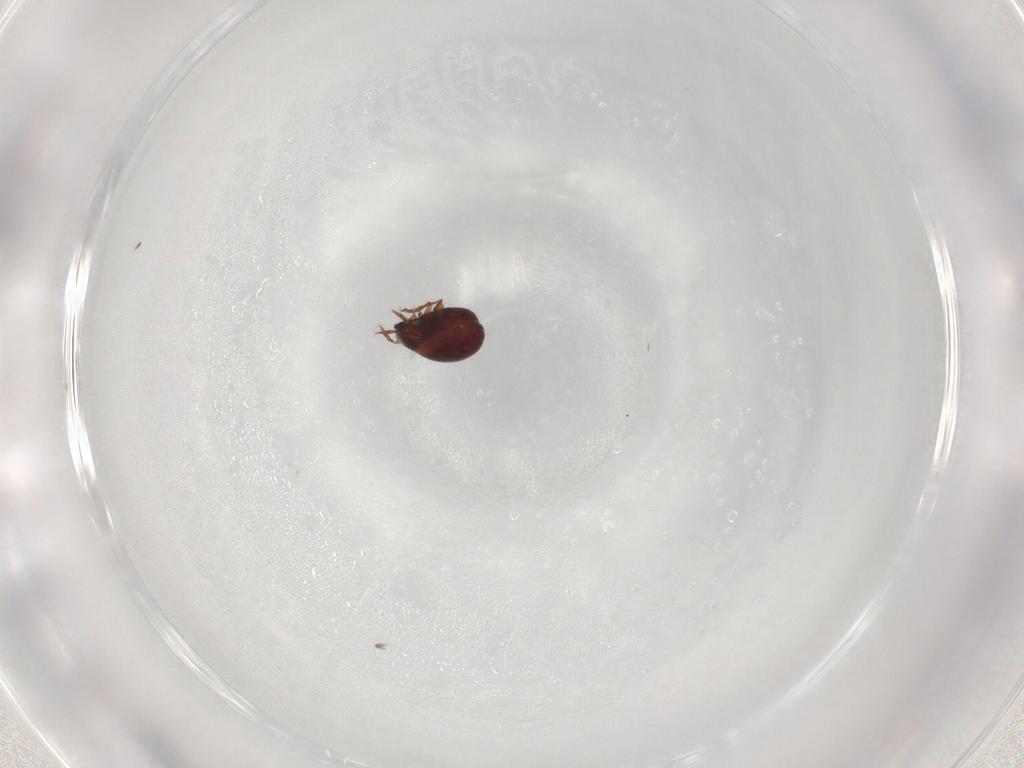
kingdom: Animalia
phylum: Arthropoda
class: Arachnida
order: Sarcoptiformes
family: Humerobatidae
